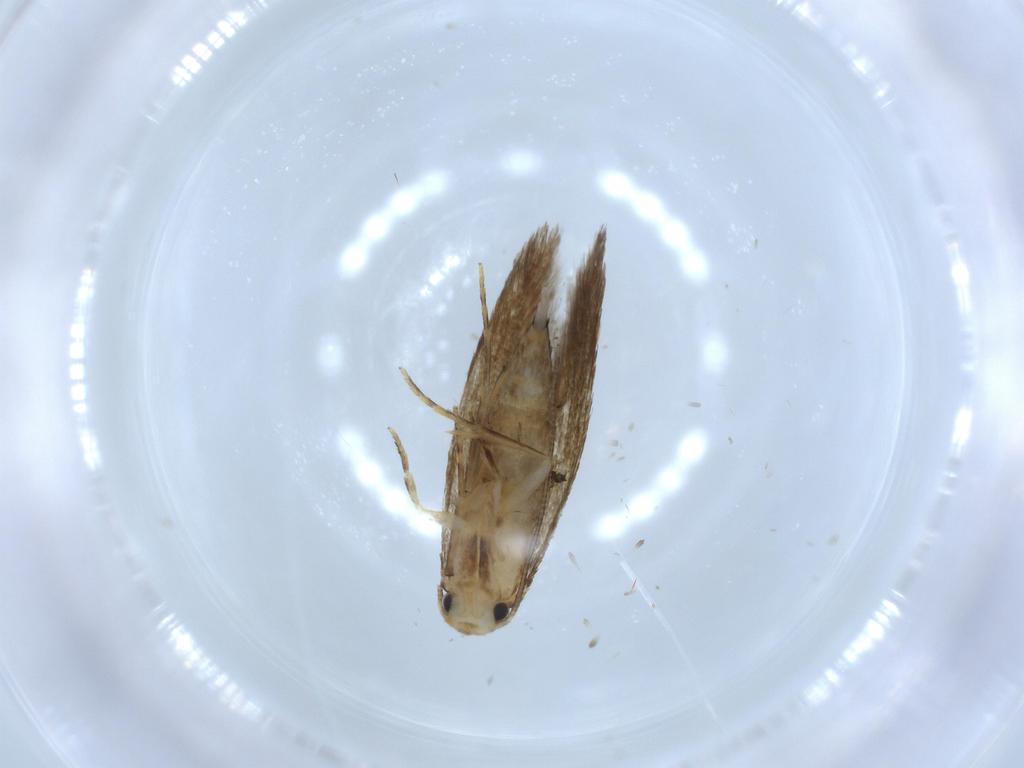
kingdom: Animalia
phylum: Arthropoda
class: Insecta
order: Lepidoptera
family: Tineidae
